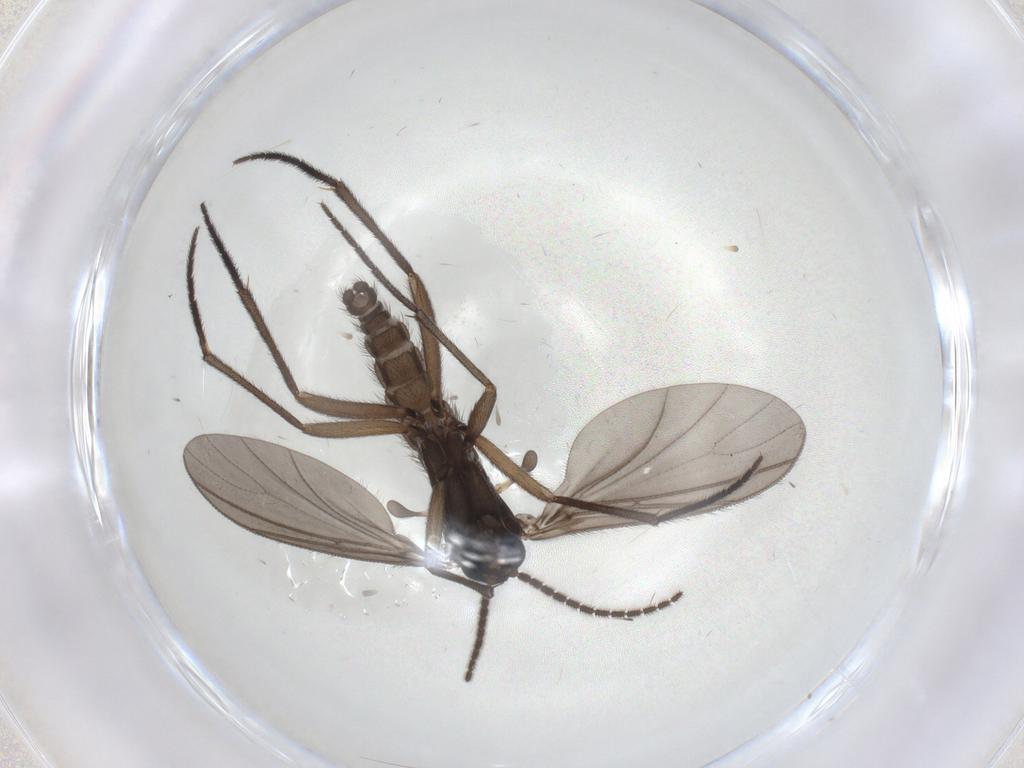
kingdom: Animalia
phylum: Arthropoda
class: Insecta
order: Diptera
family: Sciaridae
